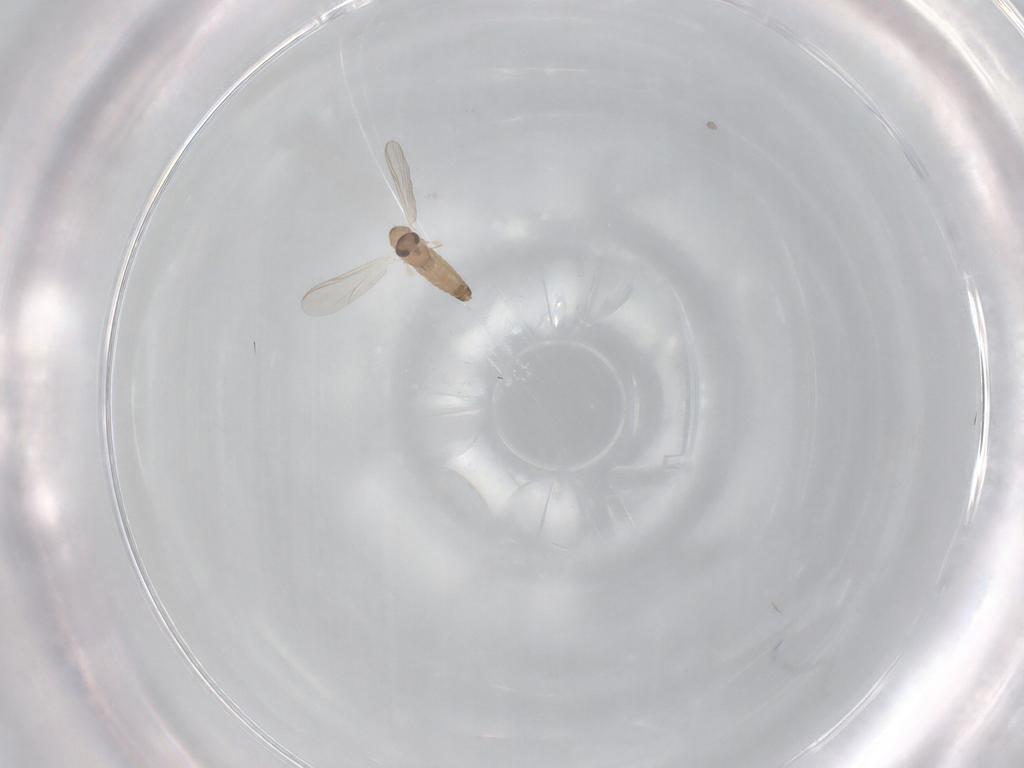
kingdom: Animalia
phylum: Arthropoda
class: Insecta
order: Diptera
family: Chironomidae
